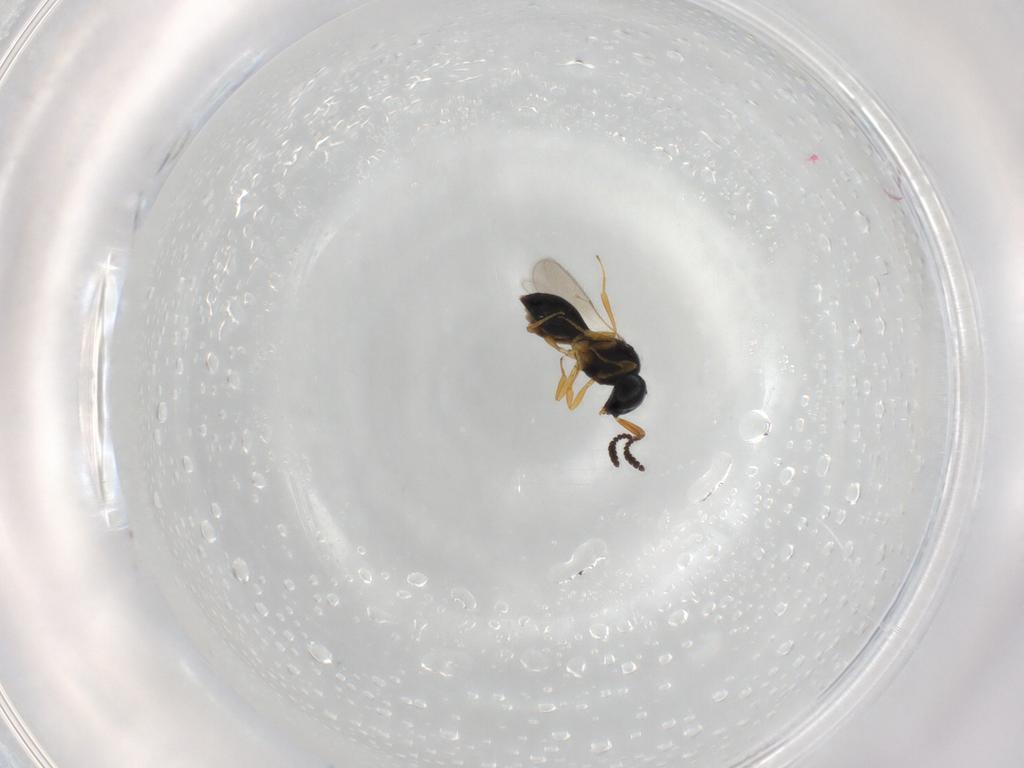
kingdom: Animalia
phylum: Arthropoda
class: Insecta
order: Hymenoptera
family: Scelionidae
